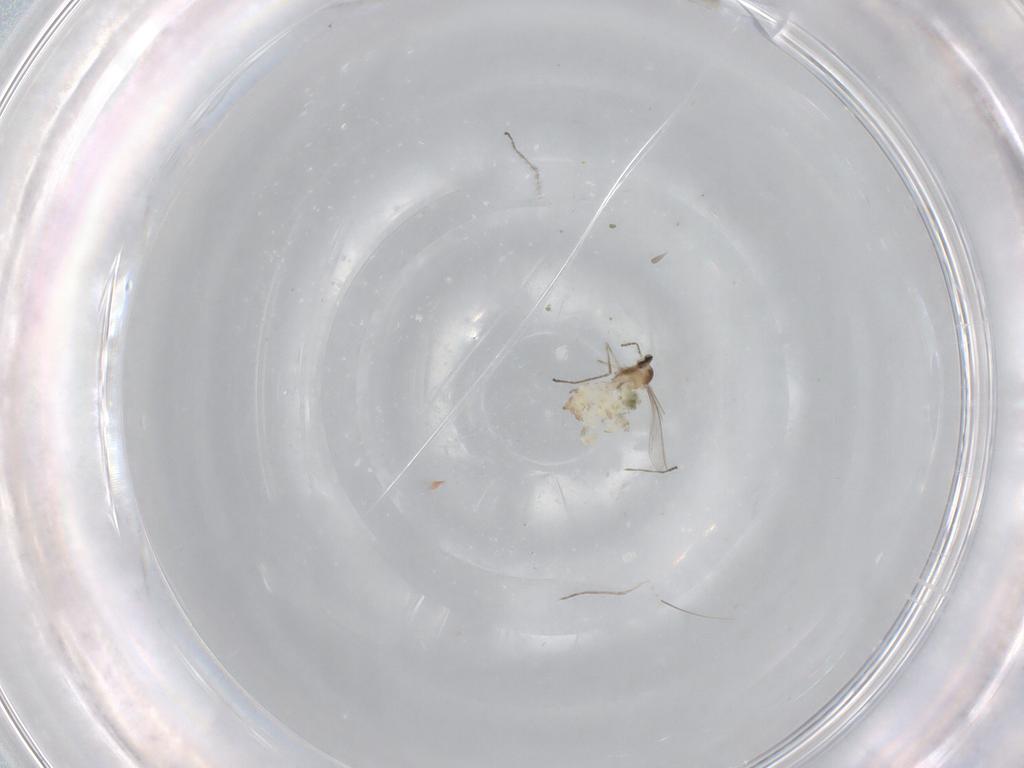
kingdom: Animalia
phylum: Arthropoda
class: Insecta
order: Diptera
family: Cecidomyiidae
